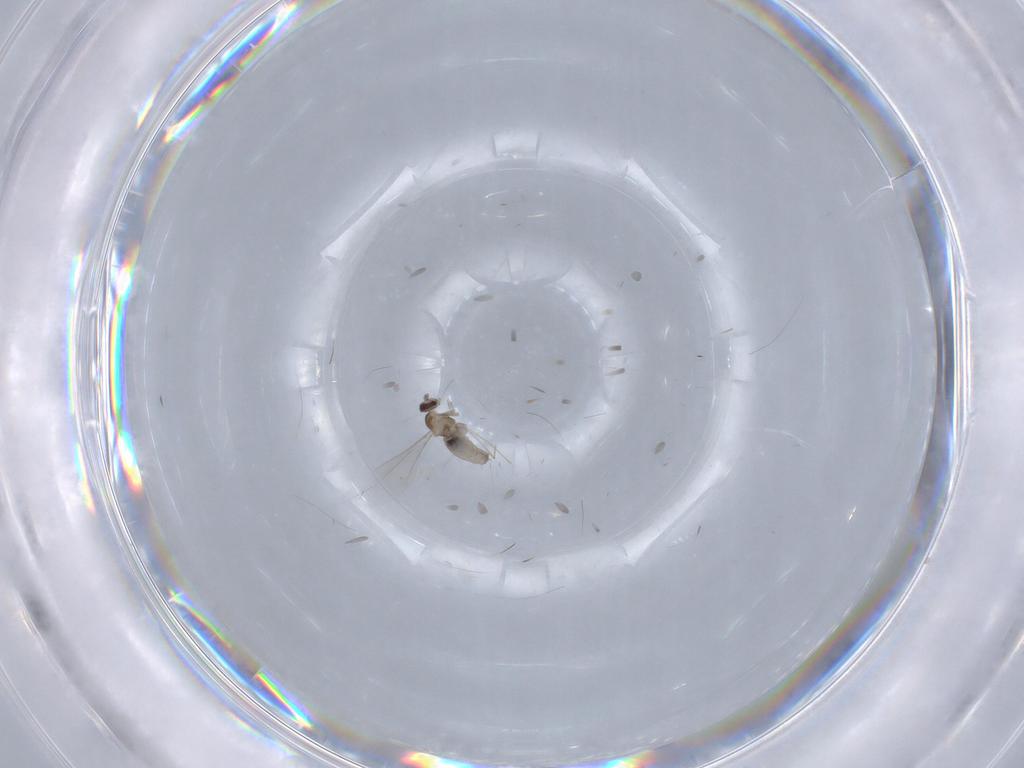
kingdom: Animalia
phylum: Arthropoda
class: Insecta
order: Diptera
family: Cecidomyiidae
